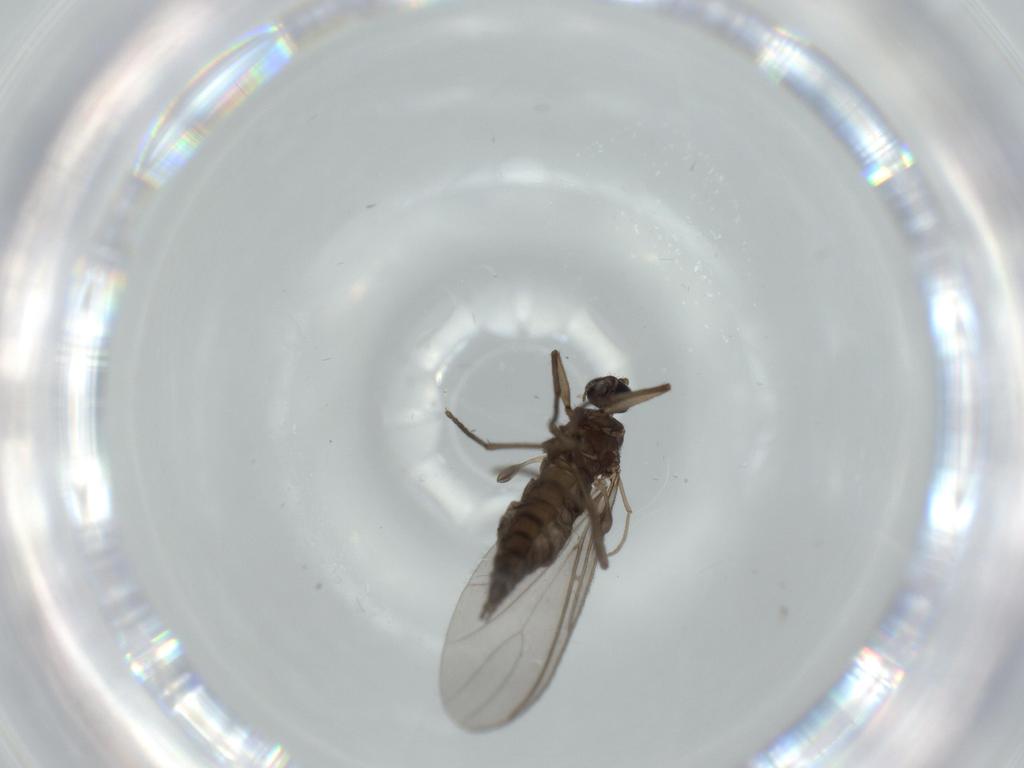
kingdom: Animalia
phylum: Arthropoda
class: Insecta
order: Diptera
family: Sciaridae
